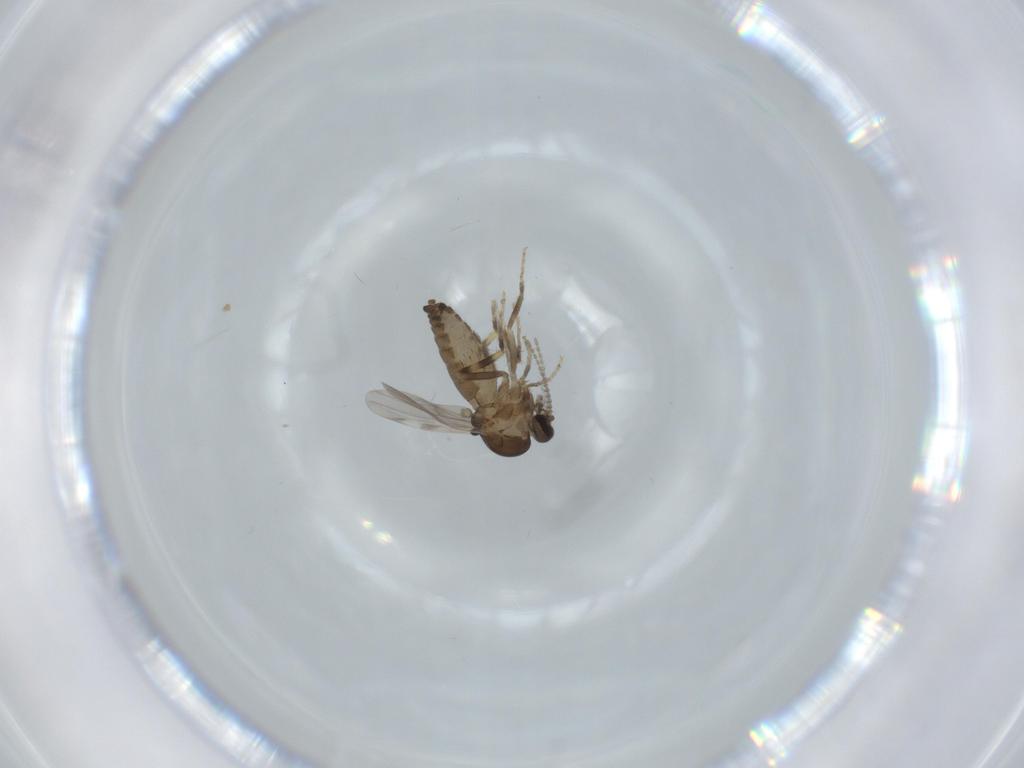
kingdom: Animalia
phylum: Arthropoda
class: Insecta
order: Diptera
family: Ceratopogonidae
